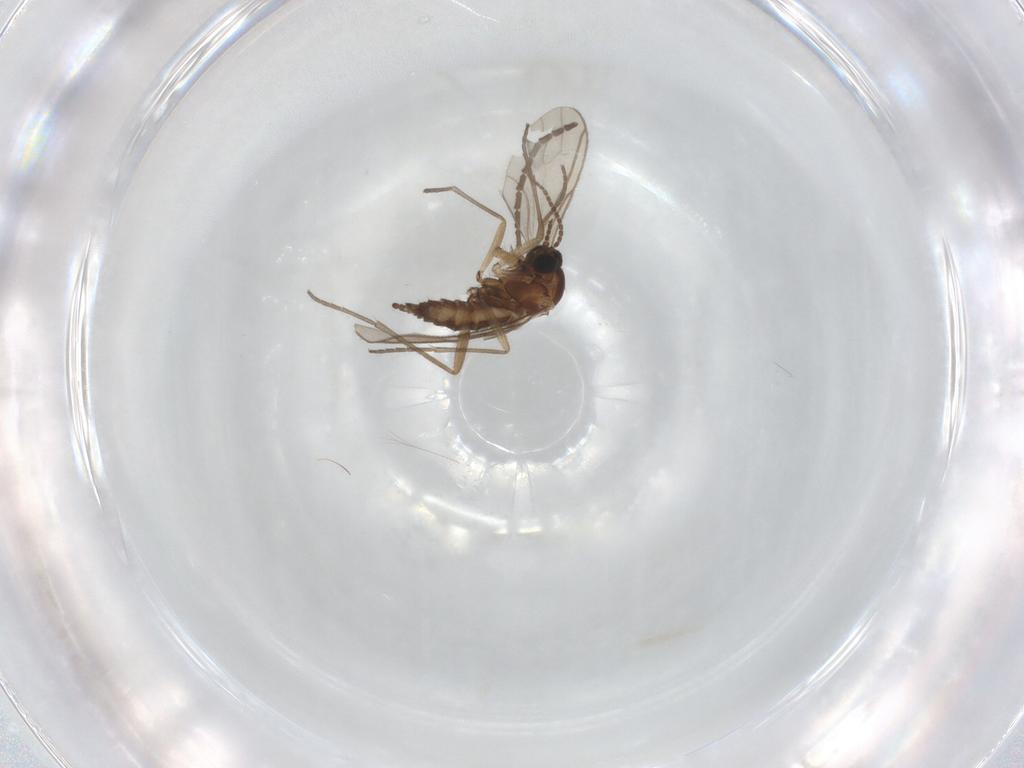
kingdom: Animalia
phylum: Arthropoda
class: Insecta
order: Diptera
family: Sciaridae
